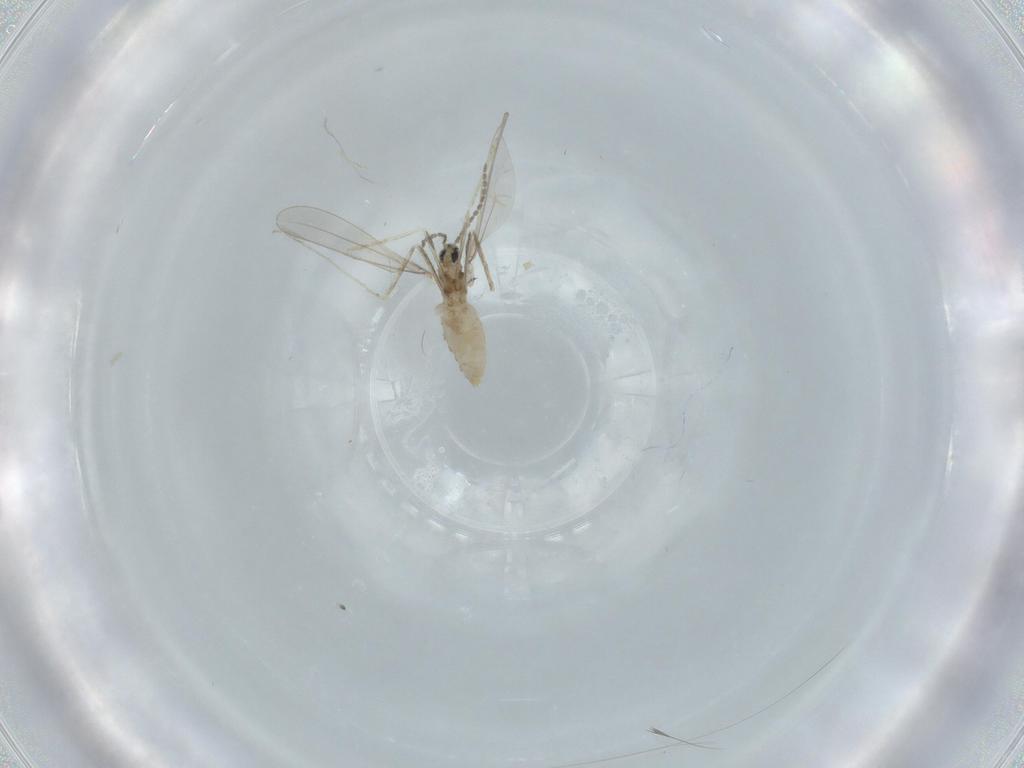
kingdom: Animalia
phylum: Arthropoda
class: Insecta
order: Diptera
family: Cecidomyiidae
